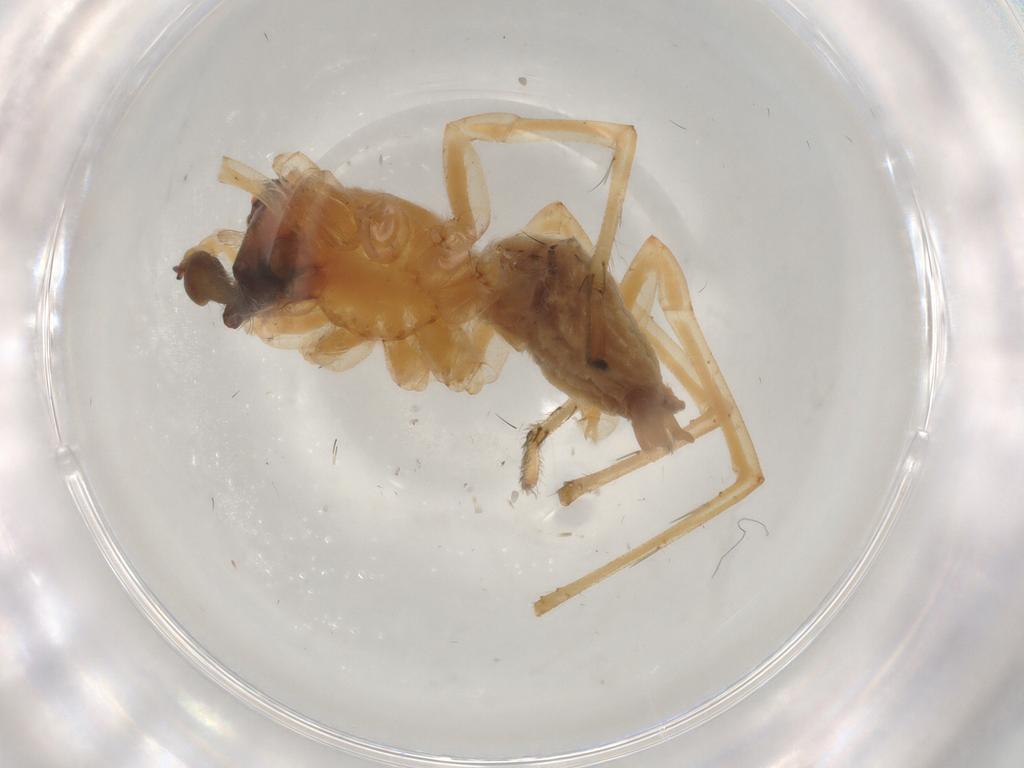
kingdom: Animalia
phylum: Arthropoda
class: Arachnida
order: Araneae
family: Cheiracanthiidae
